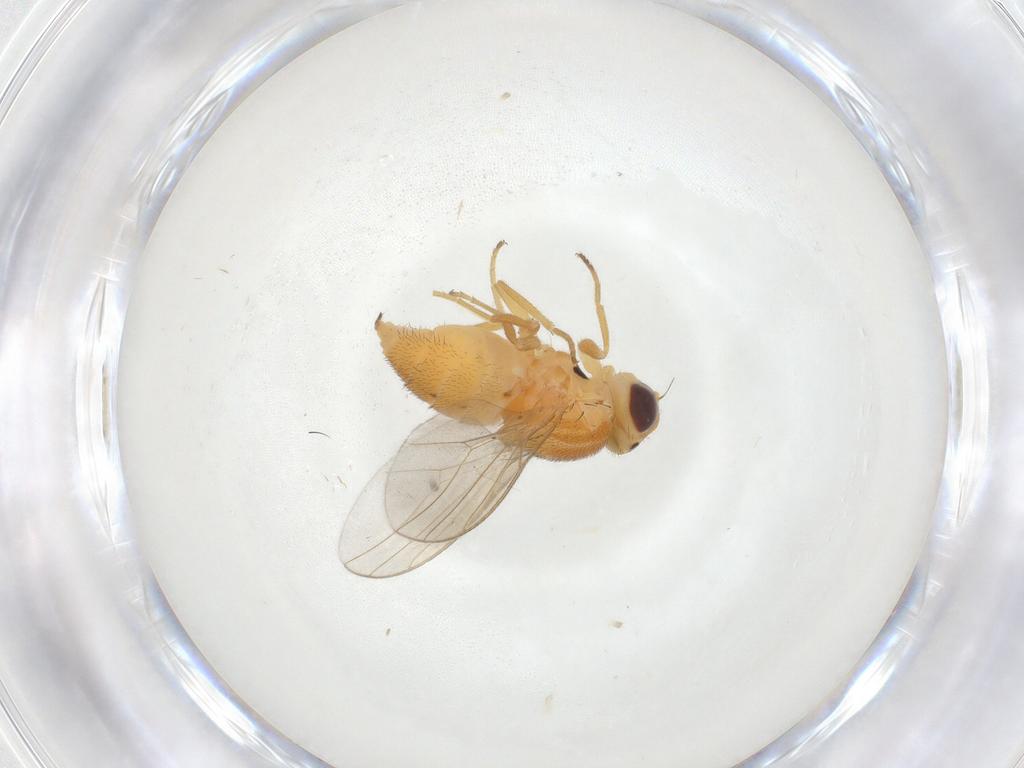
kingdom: Animalia
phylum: Arthropoda
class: Insecta
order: Diptera
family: Chloropidae
